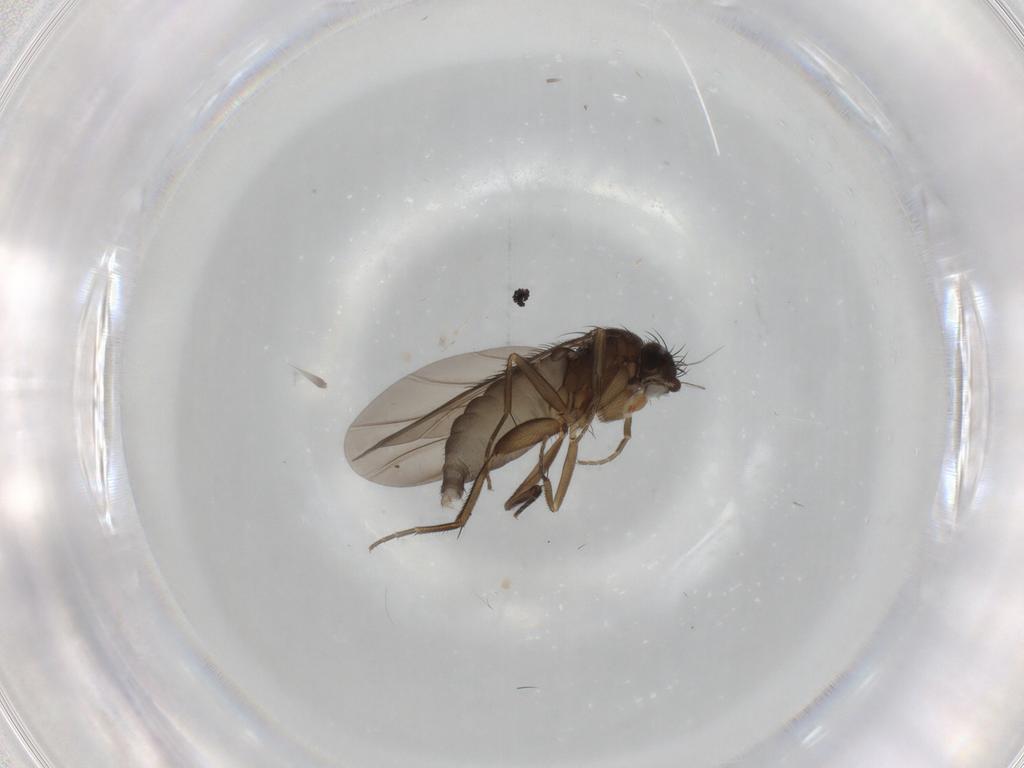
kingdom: Animalia
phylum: Arthropoda
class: Insecta
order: Diptera
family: Phoridae
